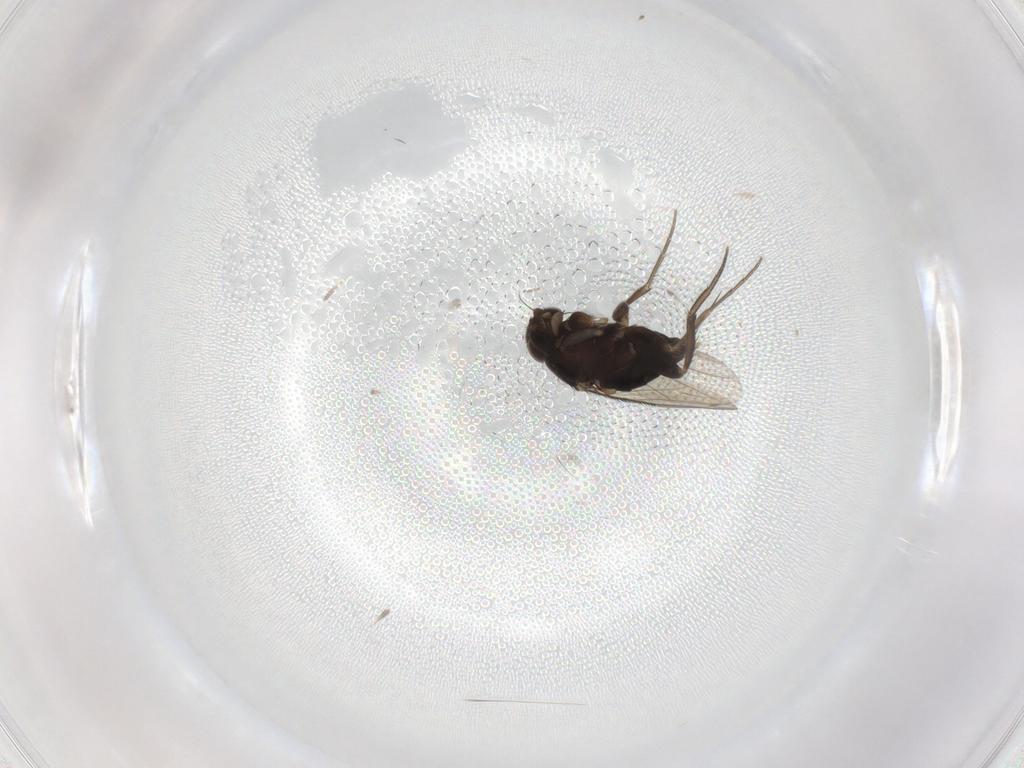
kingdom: Animalia
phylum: Arthropoda
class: Insecta
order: Diptera
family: Phoridae
